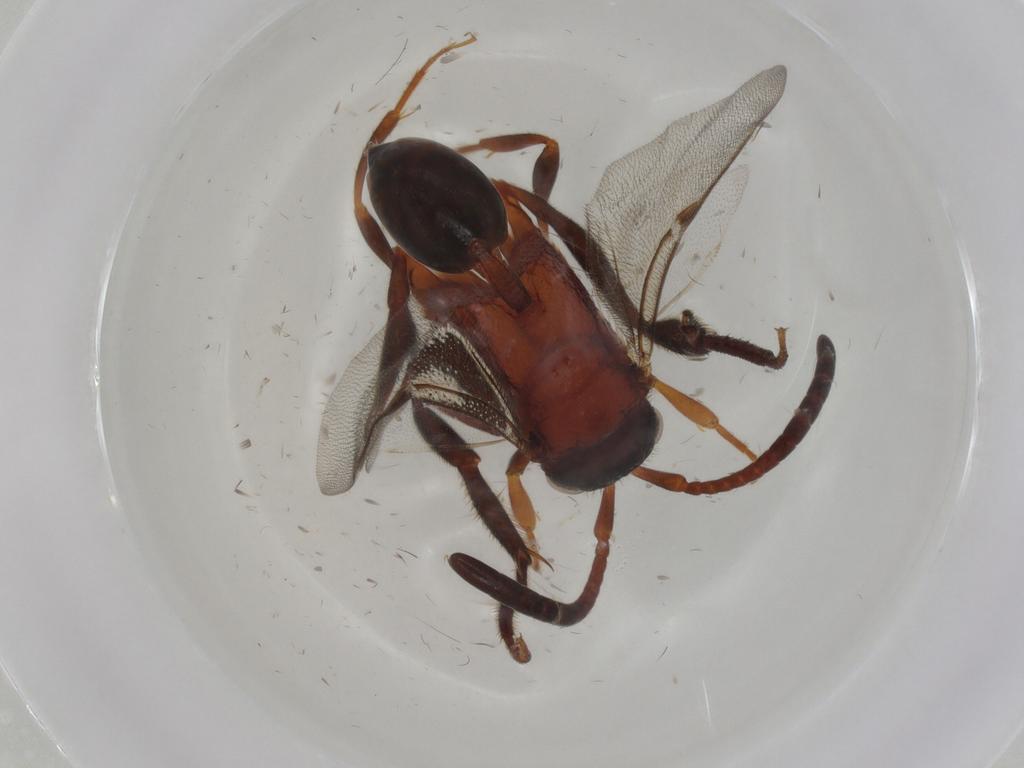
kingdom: Animalia
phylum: Arthropoda
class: Insecta
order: Hymenoptera
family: Evaniidae
